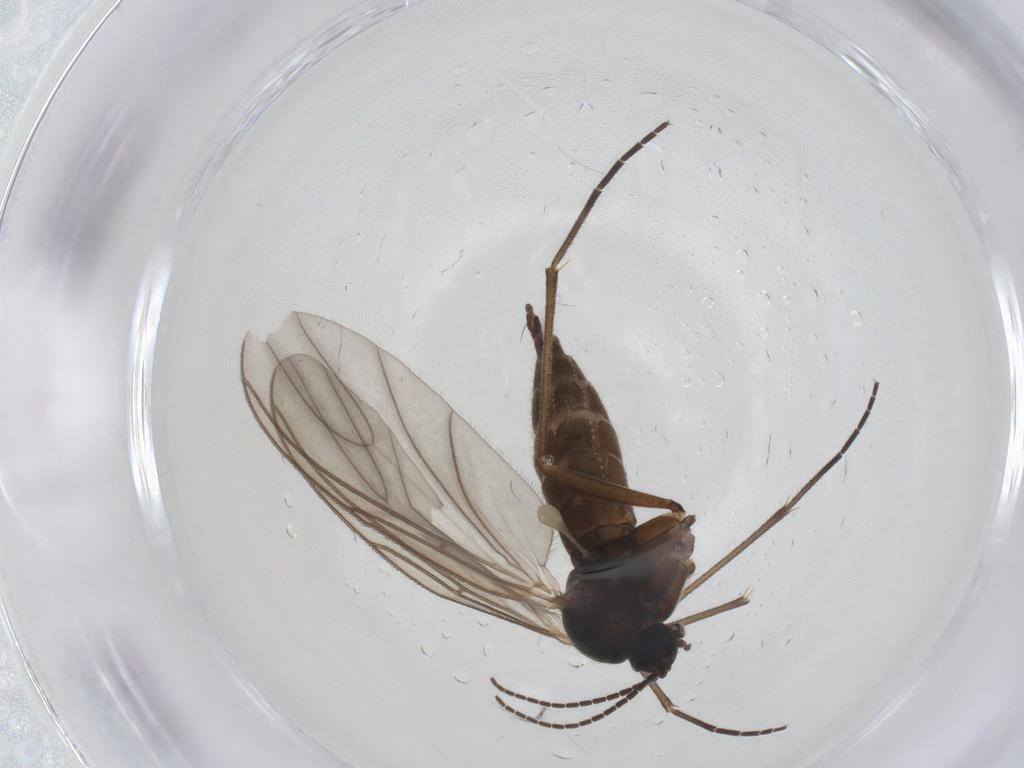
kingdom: Animalia
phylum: Arthropoda
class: Insecta
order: Diptera
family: Sciaridae
